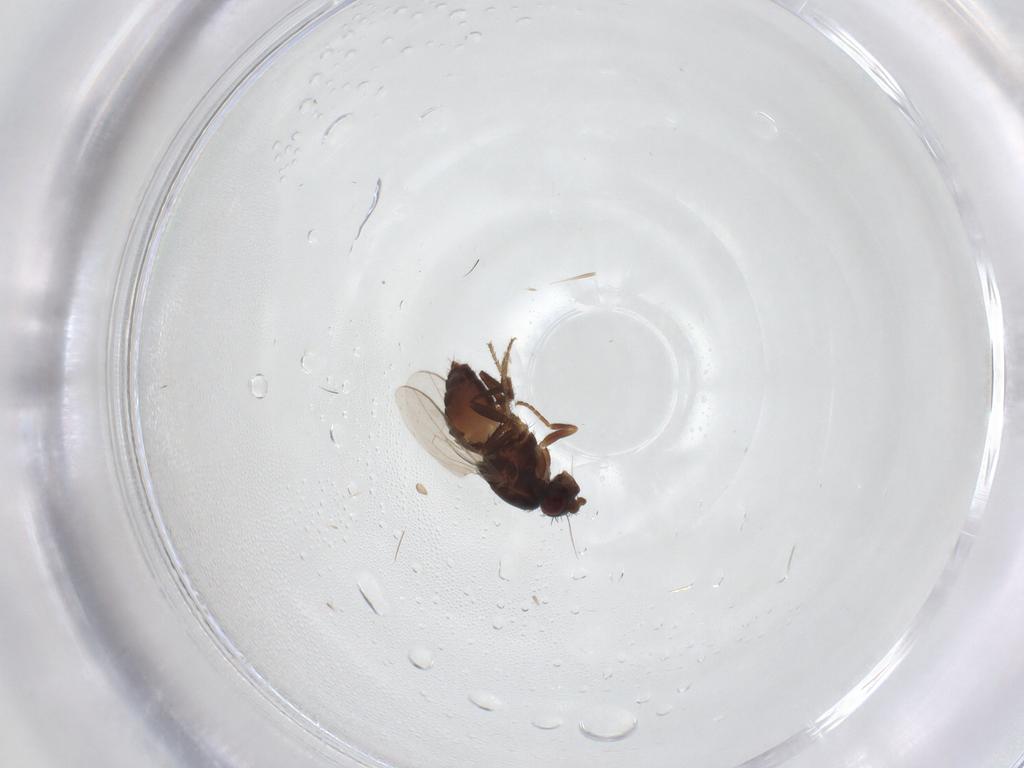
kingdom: Animalia
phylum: Arthropoda
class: Insecta
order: Diptera
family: Sphaeroceridae
